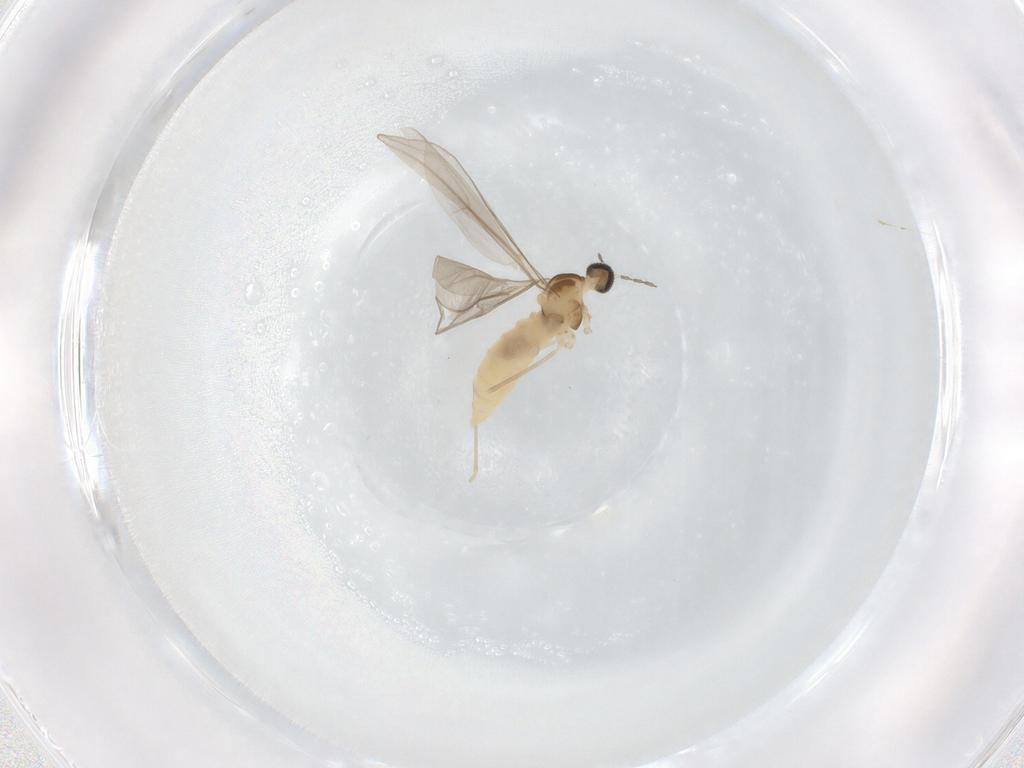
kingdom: Animalia
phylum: Arthropoda
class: Insecta
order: Diptera
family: Cecidomyiidae
